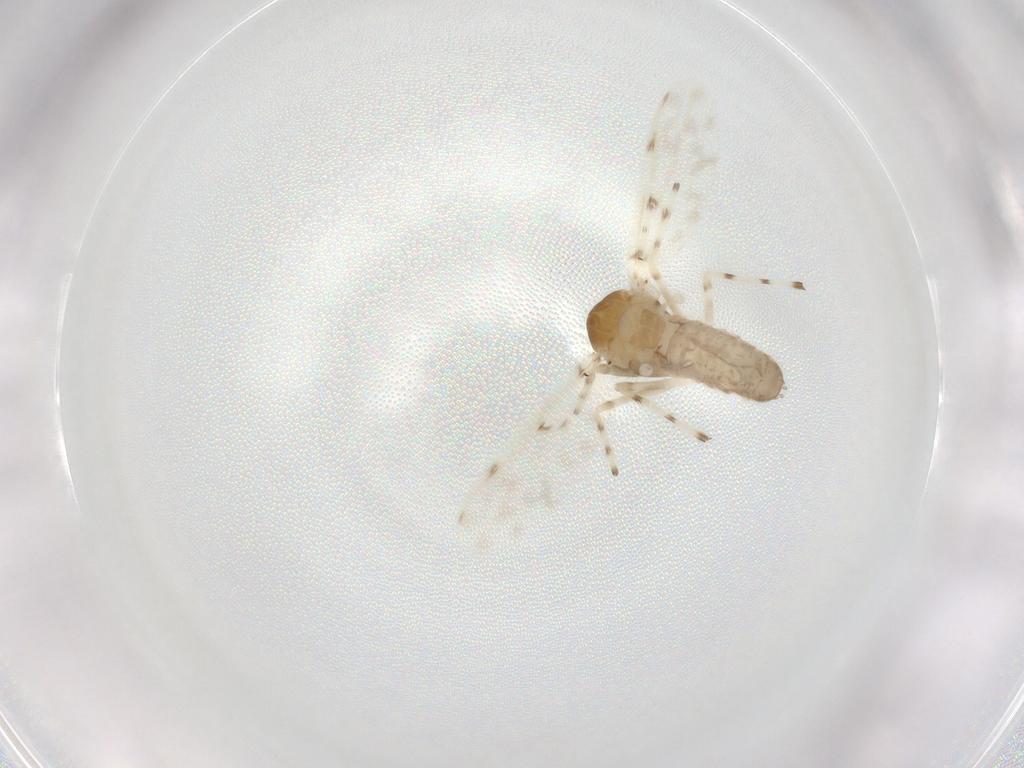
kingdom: Animalia
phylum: Arthropoda
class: Insecta
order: Diptera
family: Chironomidae
